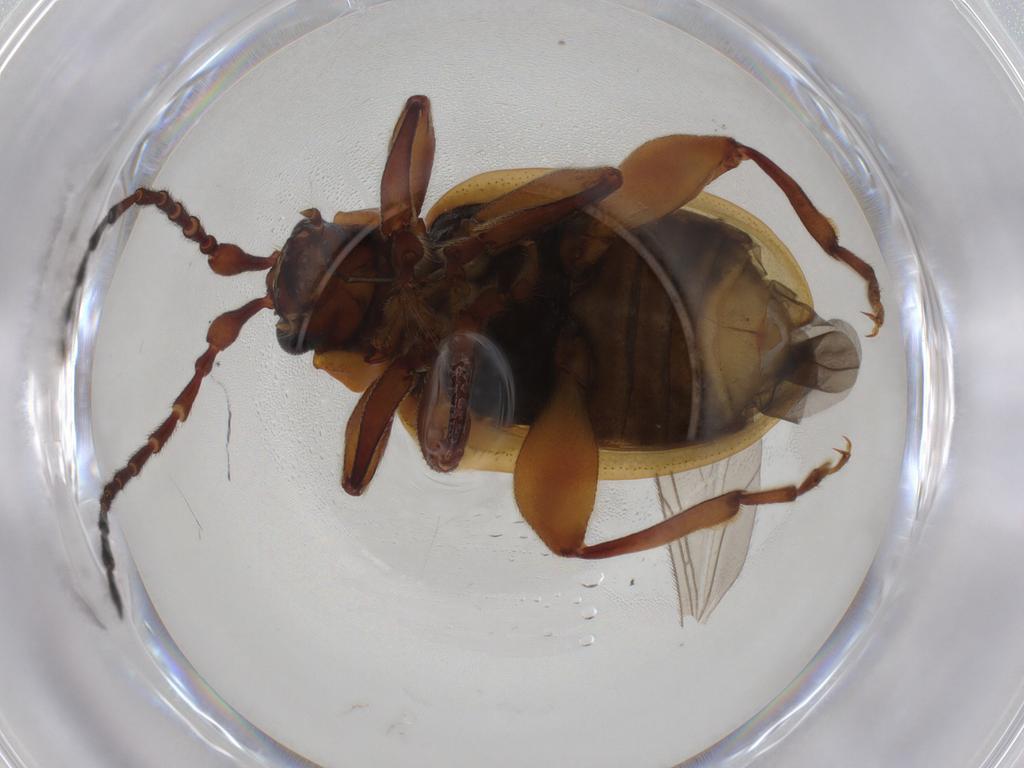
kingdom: Animalia
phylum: Arthropoda
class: Insecta
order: Coleoptera
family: Chrysomelidae
